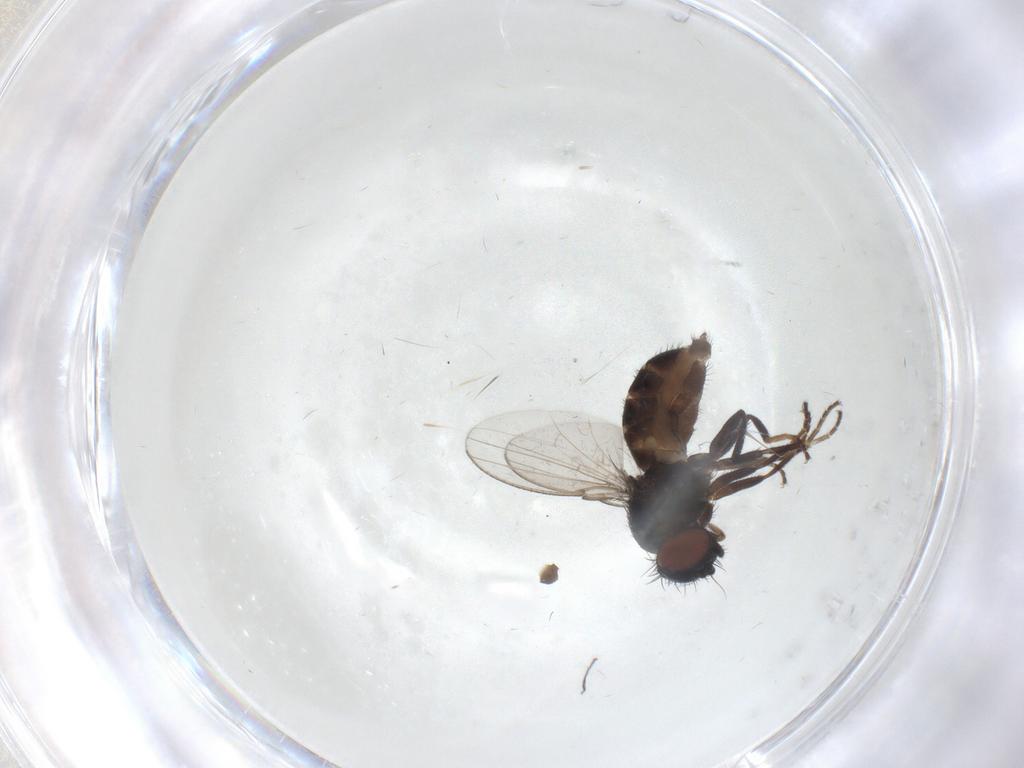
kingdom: Animalia
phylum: Arthropoda
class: Insecta
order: Diptera
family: Milichiidae
